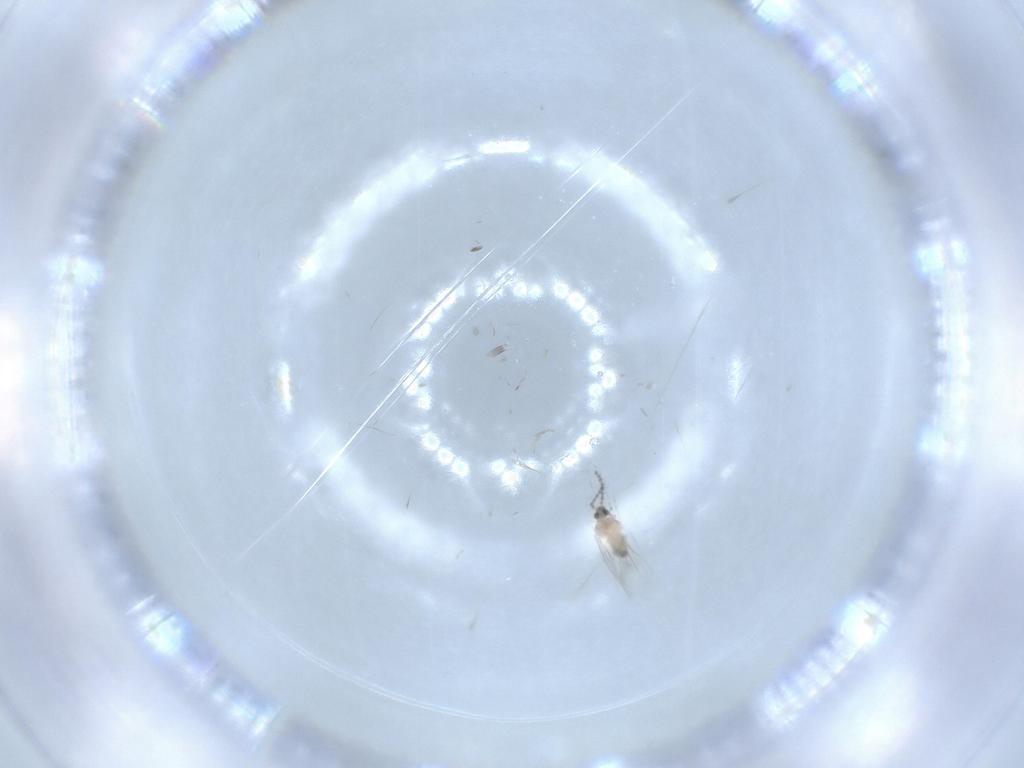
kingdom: Animalia
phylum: Arthropoda
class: Insecta
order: Diptera
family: Cecidomyiidae
